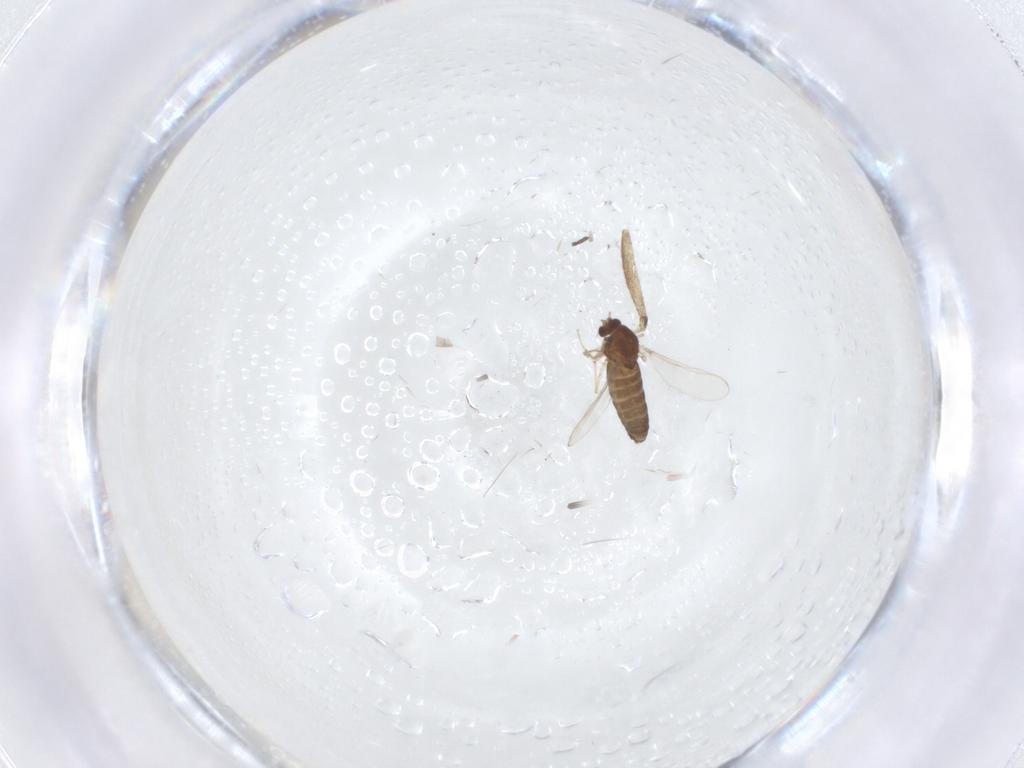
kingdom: Animalia
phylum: Arthropoda
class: Insecta
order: Diptera
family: Chironomidae
